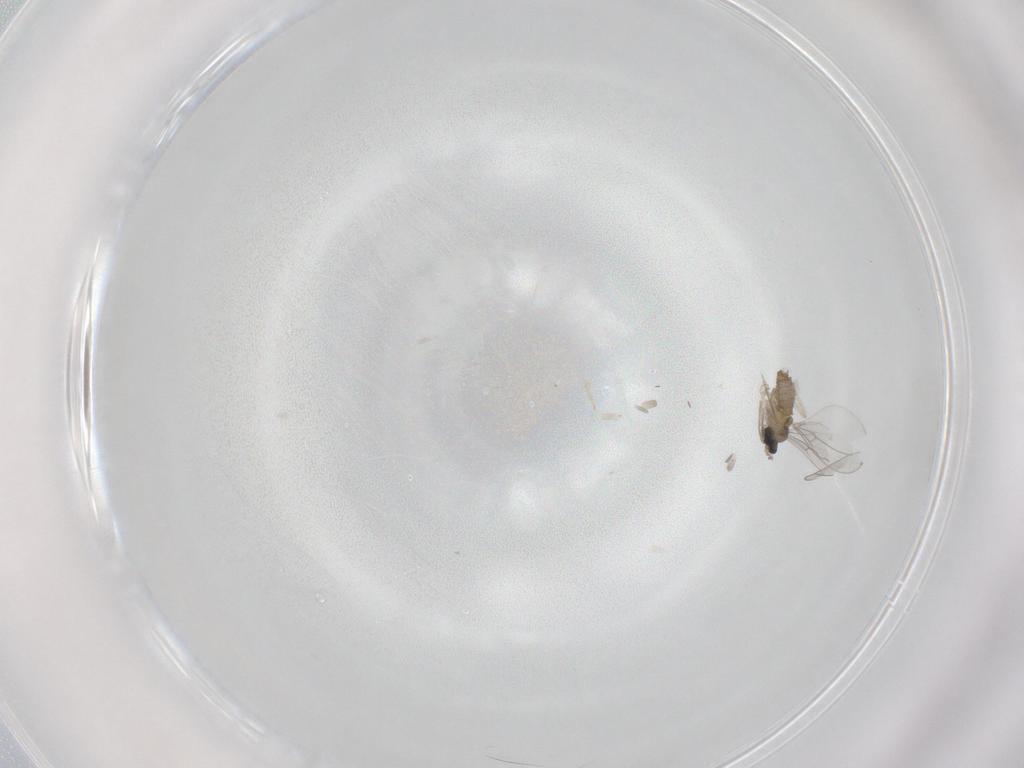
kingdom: Animalia
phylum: Arthropoda
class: Insecta
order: Diptera
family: Cecidomyiidae
